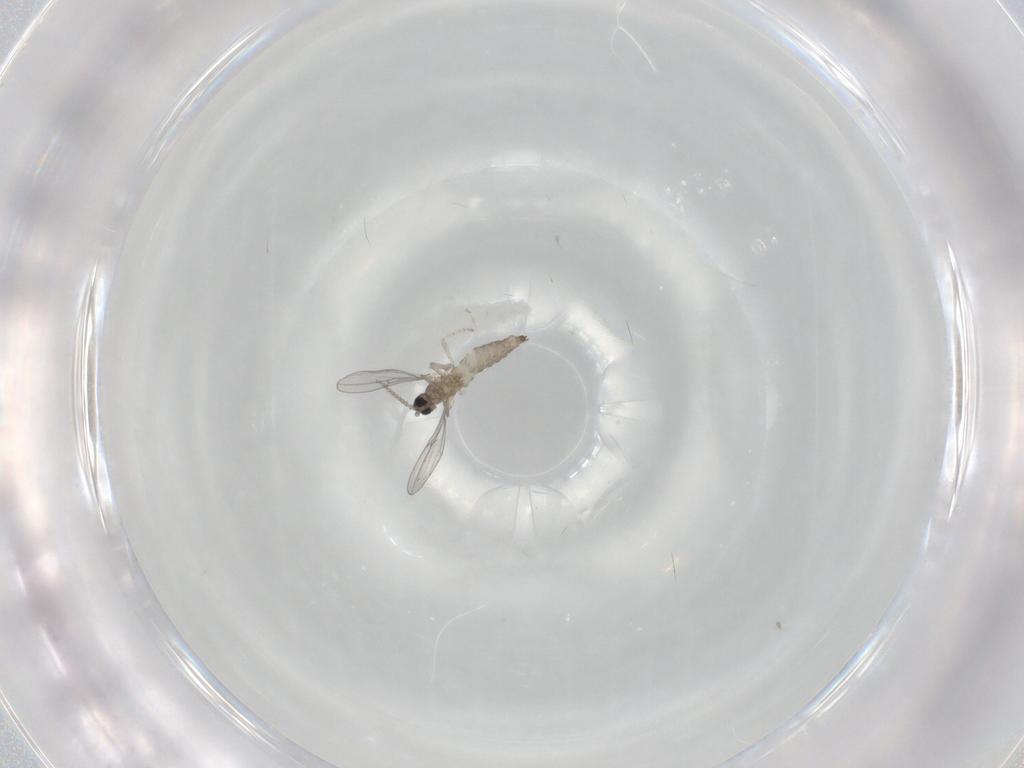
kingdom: Animalia
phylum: Arthropoda
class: Insecta
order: Diptera
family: Cecidomyiidae
